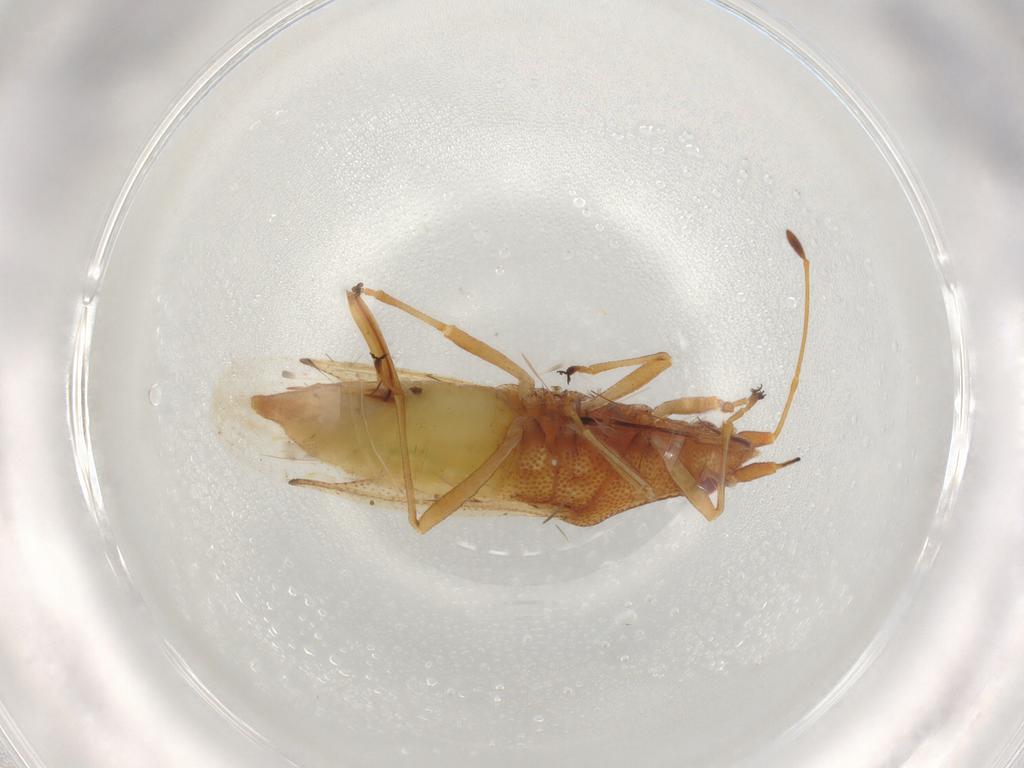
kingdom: Animalia
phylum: Arthropoda
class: Insecta
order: Hemiptera
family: Cymidae
